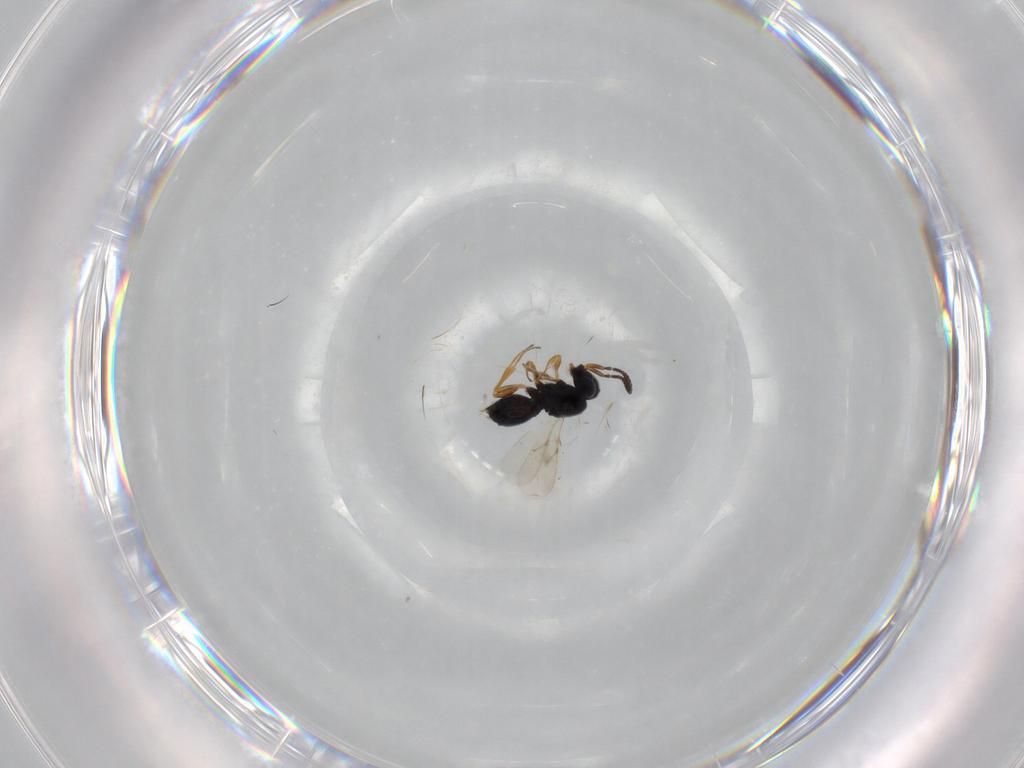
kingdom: Animalia
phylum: Arthropoda
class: Insecta
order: Hymenoptera
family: Scelionidae
